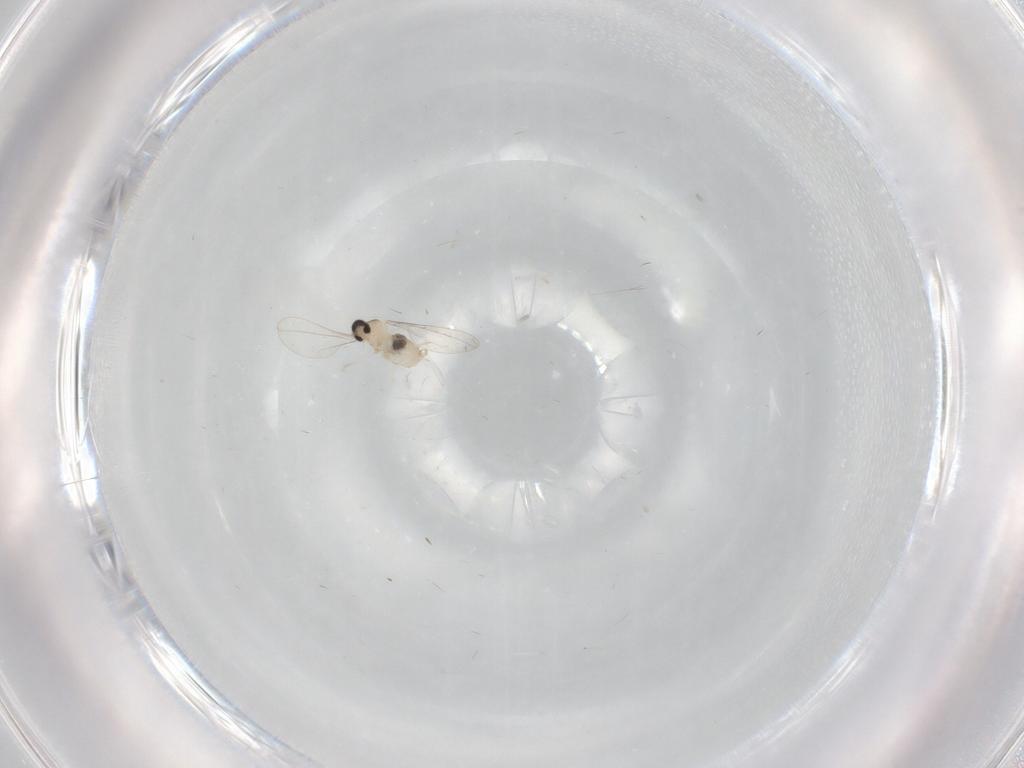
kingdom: Animalia
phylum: Arthropoda
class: Insecta
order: Diptera
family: Cecidomyiidae
